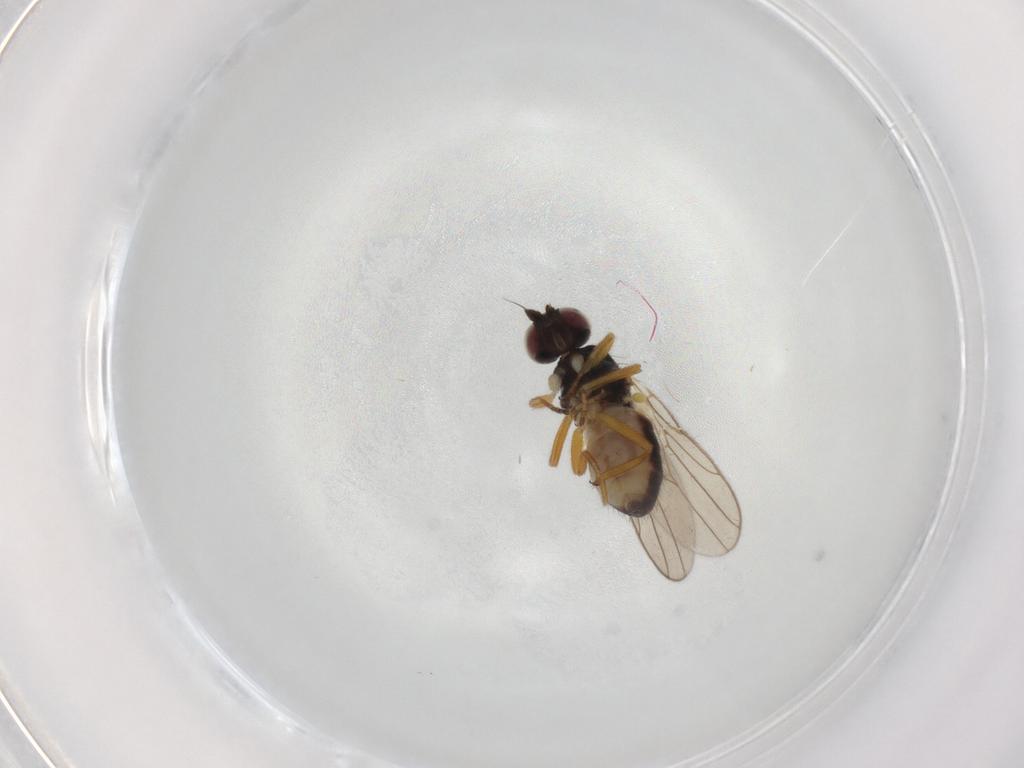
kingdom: Animalia
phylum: Arthropoda
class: Insecta
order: Diptera
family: Chloropidae
